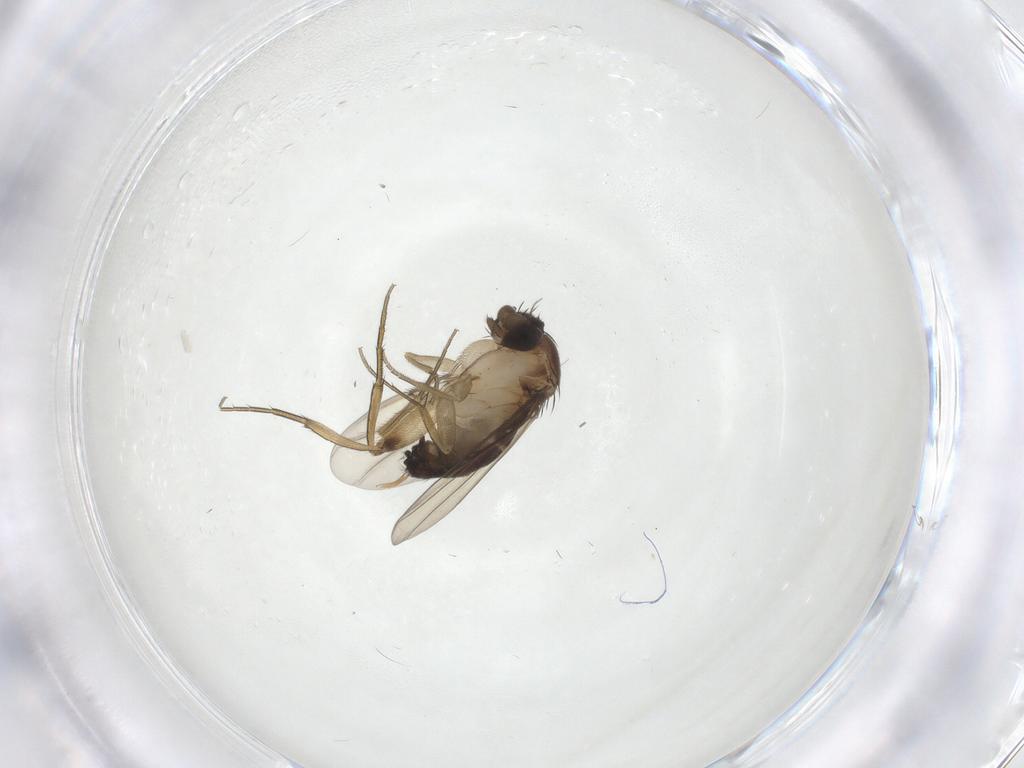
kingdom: Animalia
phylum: Arthropoda
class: Insecta
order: Diptera
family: Phoridae
